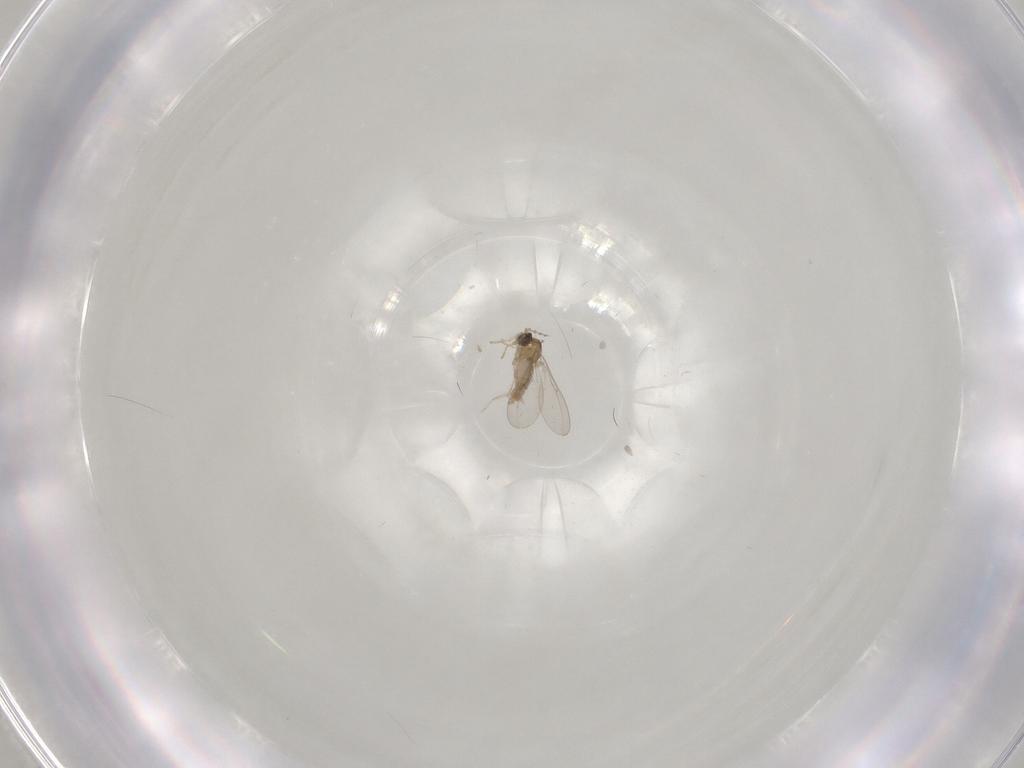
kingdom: Animalia
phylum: Arthropoda
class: Insecta
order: Diptera
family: Cecidomyiidae
